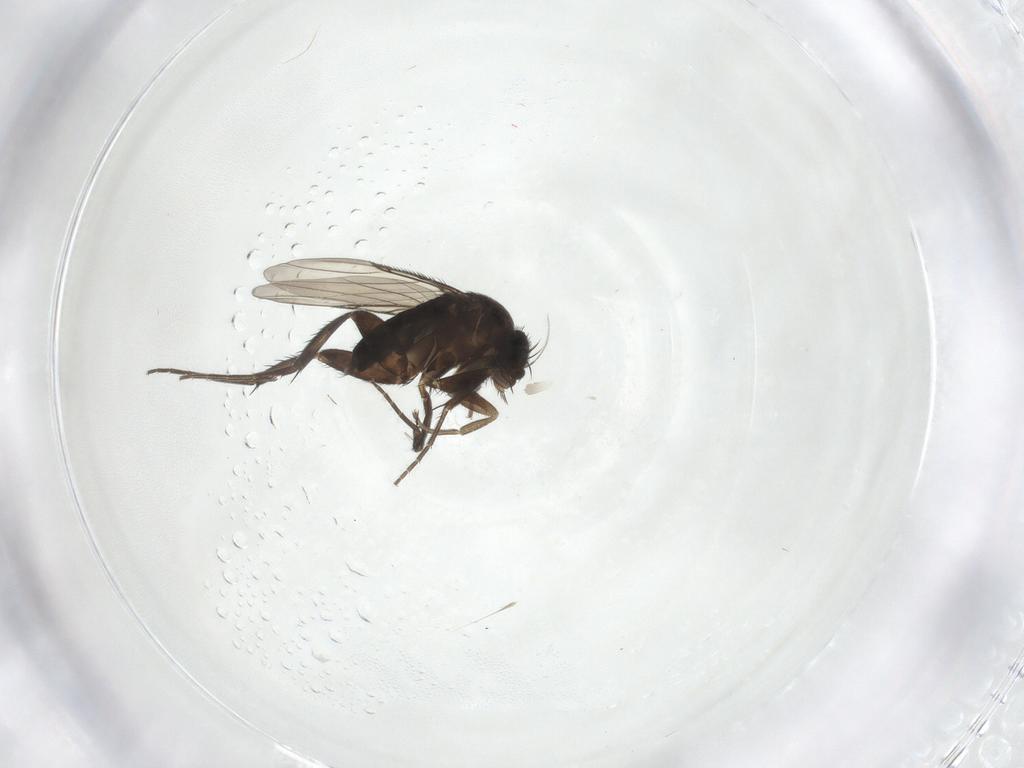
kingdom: Animalia
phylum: Arthropoda
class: Insecta
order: Diptera
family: Phoridae
